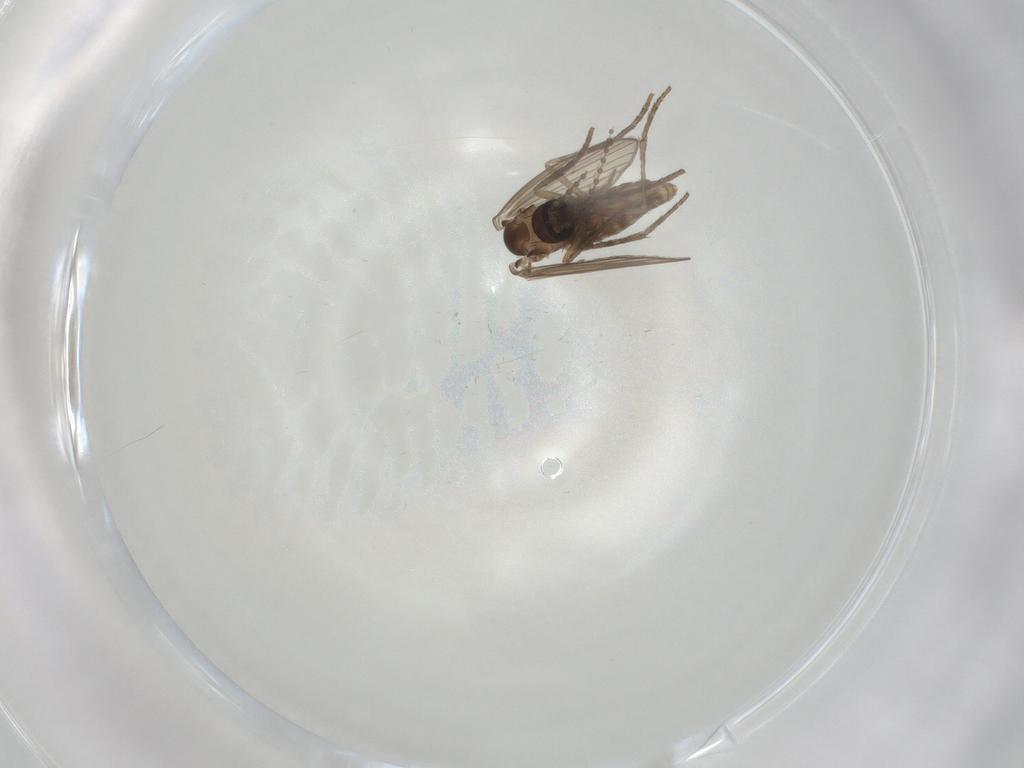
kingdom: Animalia
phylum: Arthropoda
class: Insecta
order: Diptera
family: Psychodidae
